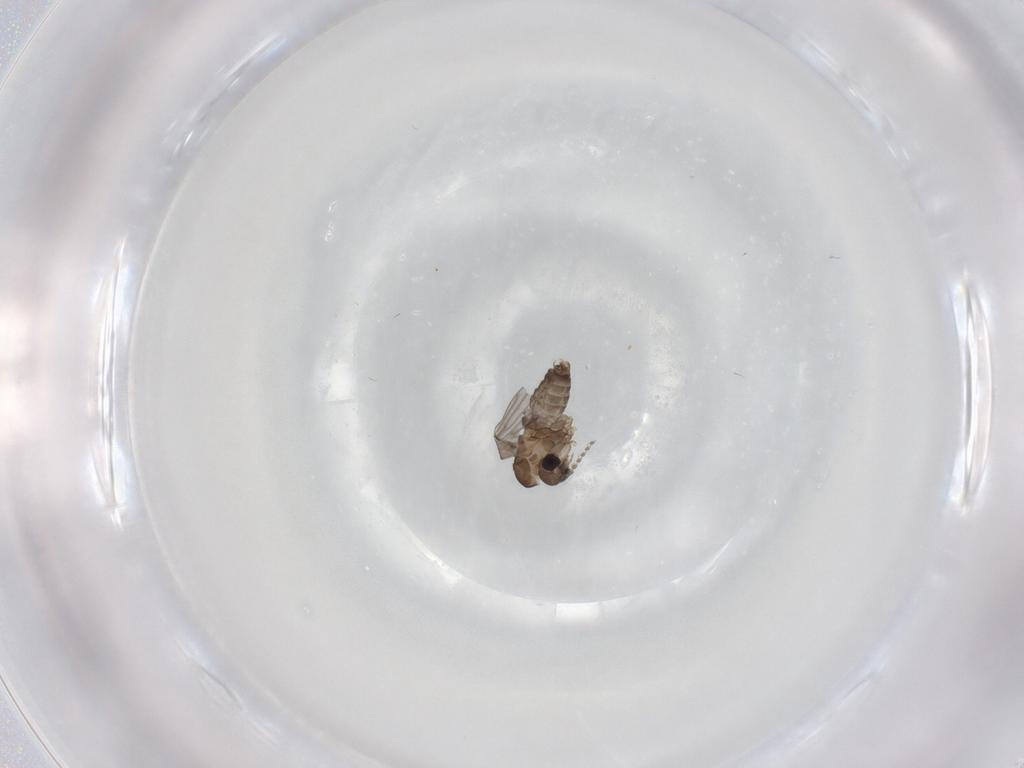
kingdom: Animalia
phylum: Arthropoda
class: Insecta
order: Diptera
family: Psychodidae
